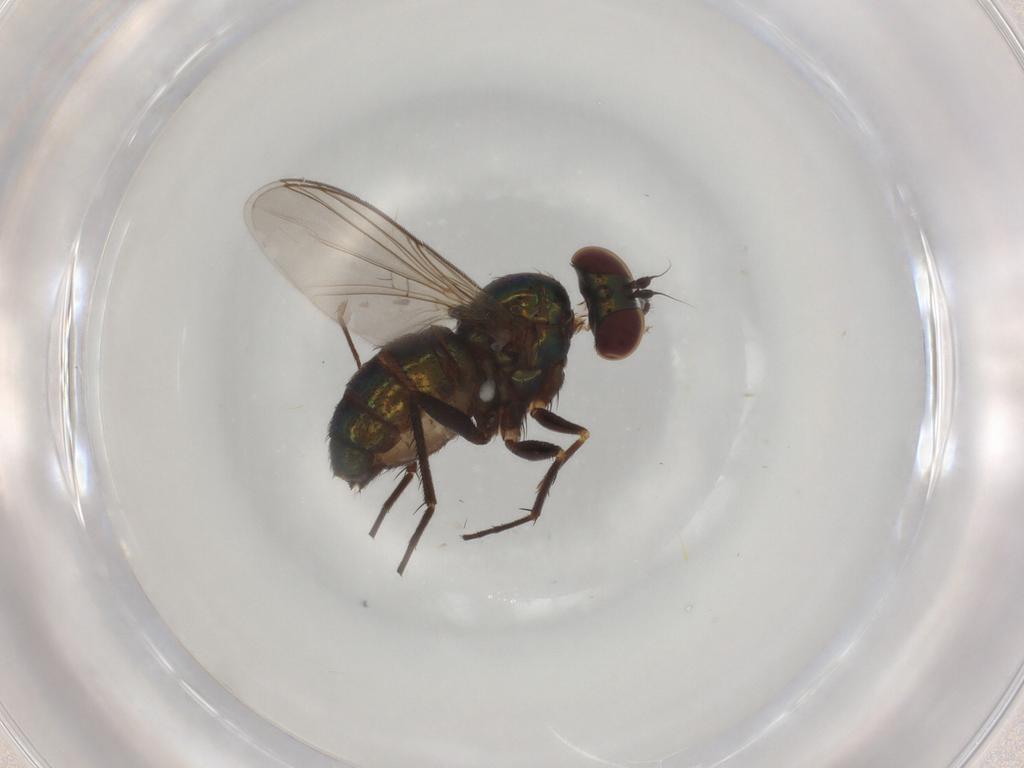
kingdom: Animalia
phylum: Arthropoda
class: Insecta
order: Diptera
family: Dolichopodidae
